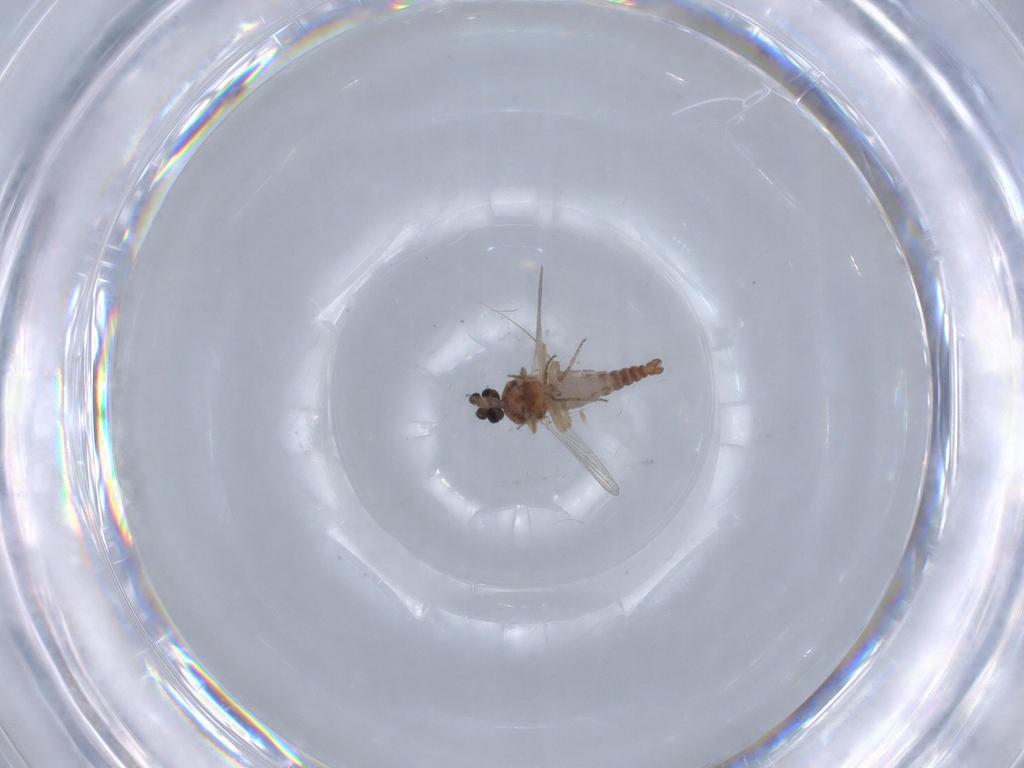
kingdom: Animalia
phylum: Arthropoda
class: Insecta
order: Diptera
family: Ceratopogonidae
